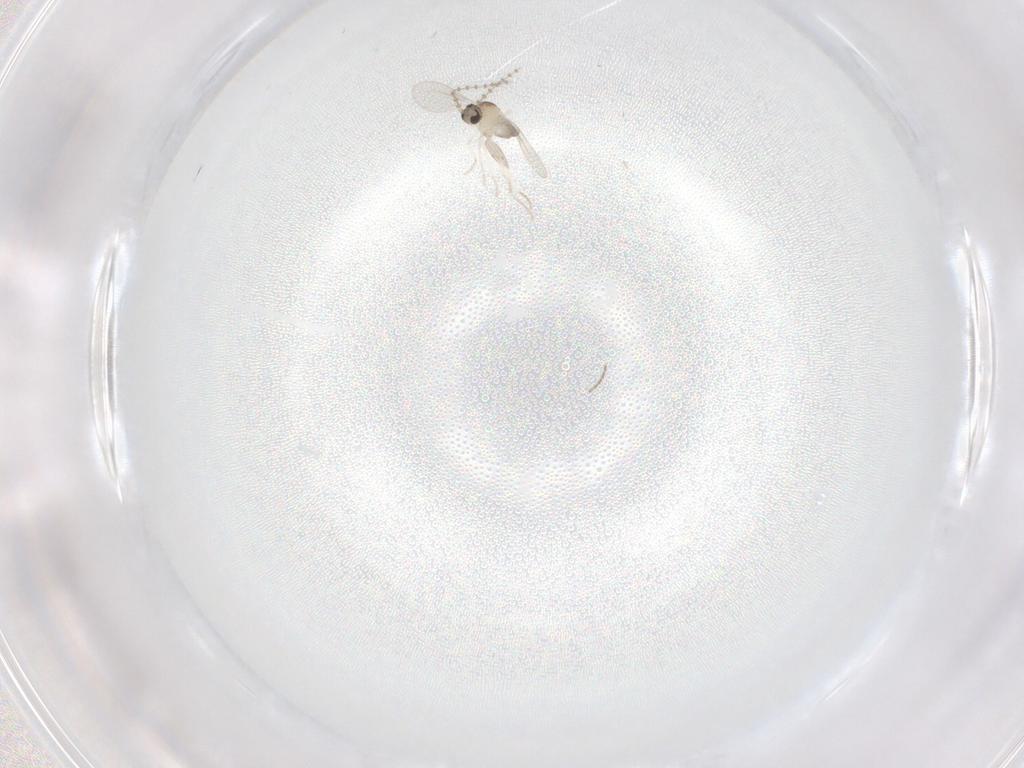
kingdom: Animalia
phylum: Arthropoda
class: Insecta
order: Diptera
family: Cecidomyiidae
